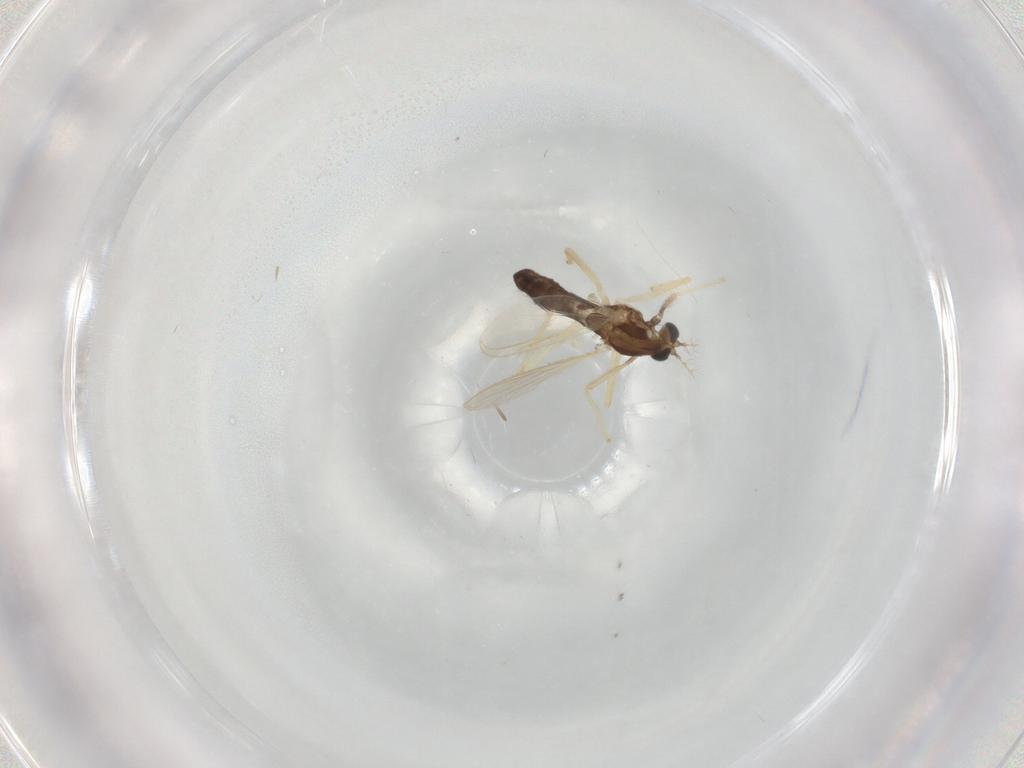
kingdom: Animalia
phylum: Arthropoda
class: Insecta
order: Diptera
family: Chironomidae
